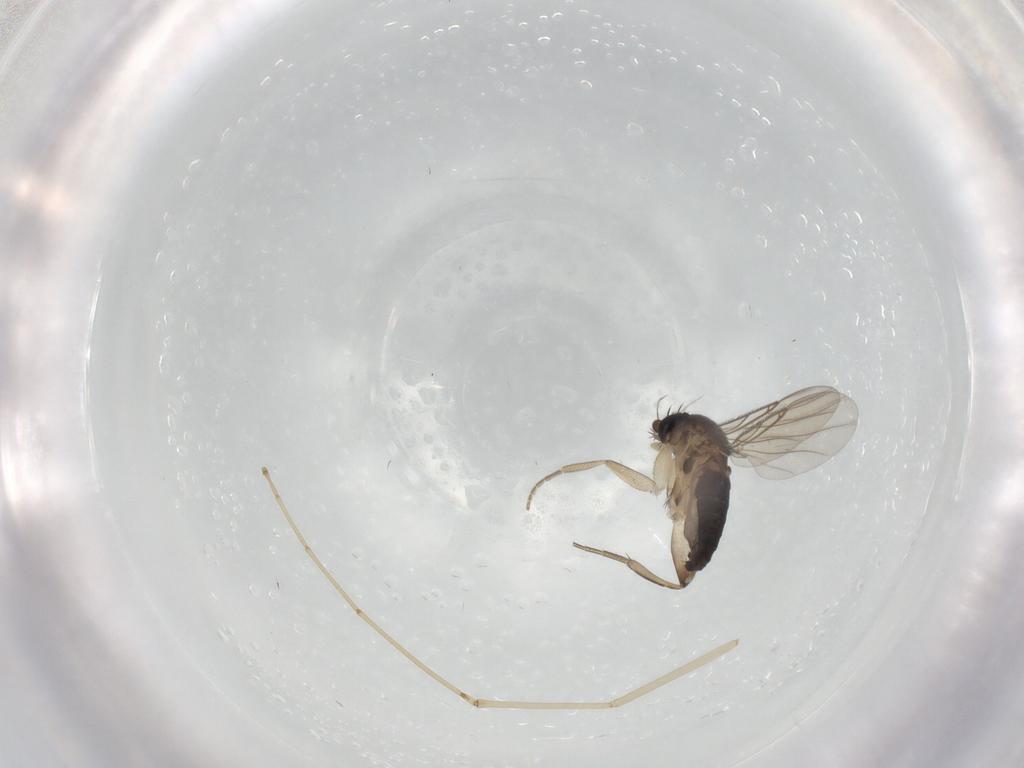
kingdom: Animalia
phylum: Arthropoda
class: Insecta
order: Diptera
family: Cecidomyiidae
